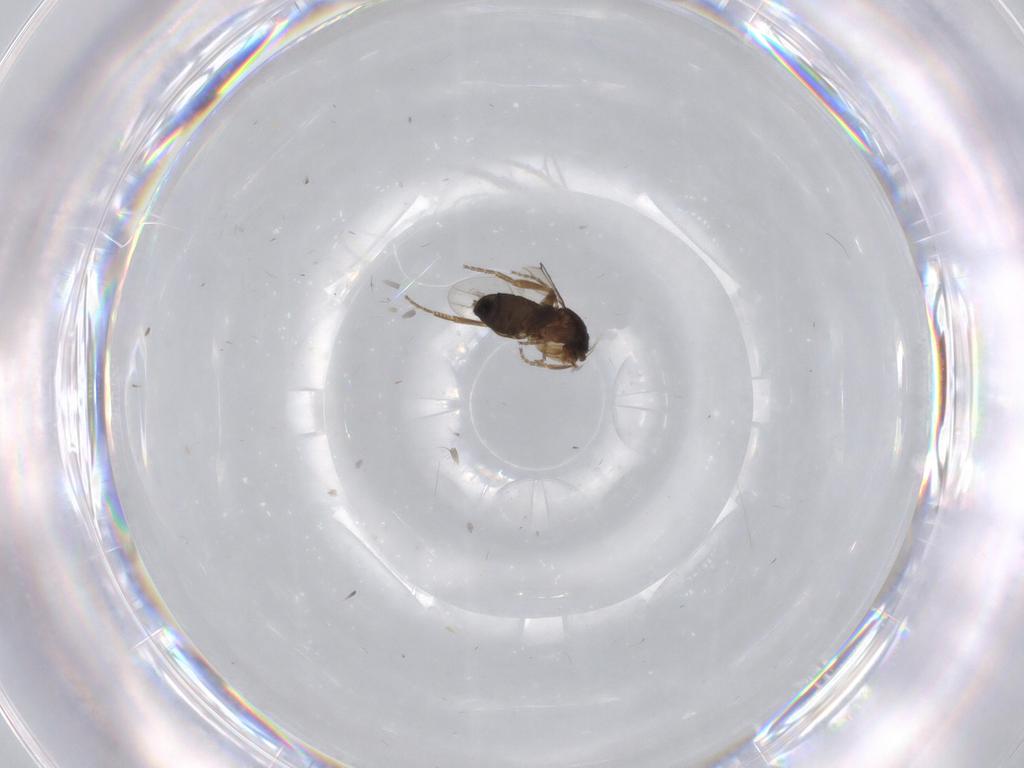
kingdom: Animalia
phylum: Arthropoda
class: Insecta
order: Diptera
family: Phoridae
